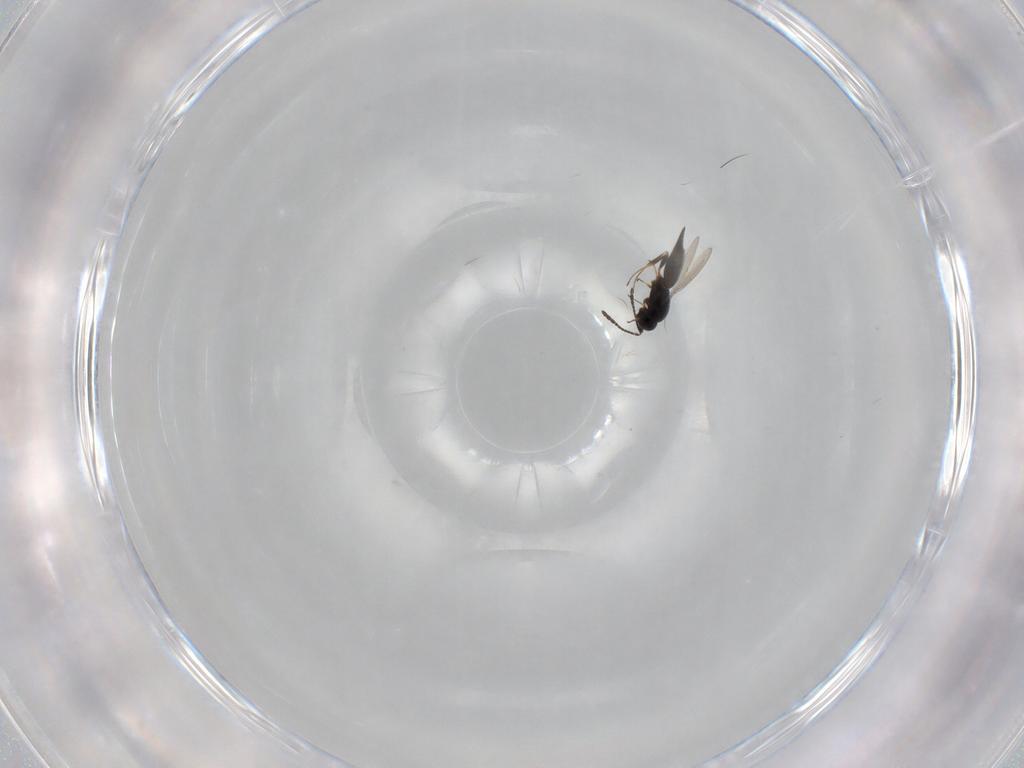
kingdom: Animalia
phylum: Arthropoda
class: Insecta
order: Hymenoptera
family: Scelionidae
